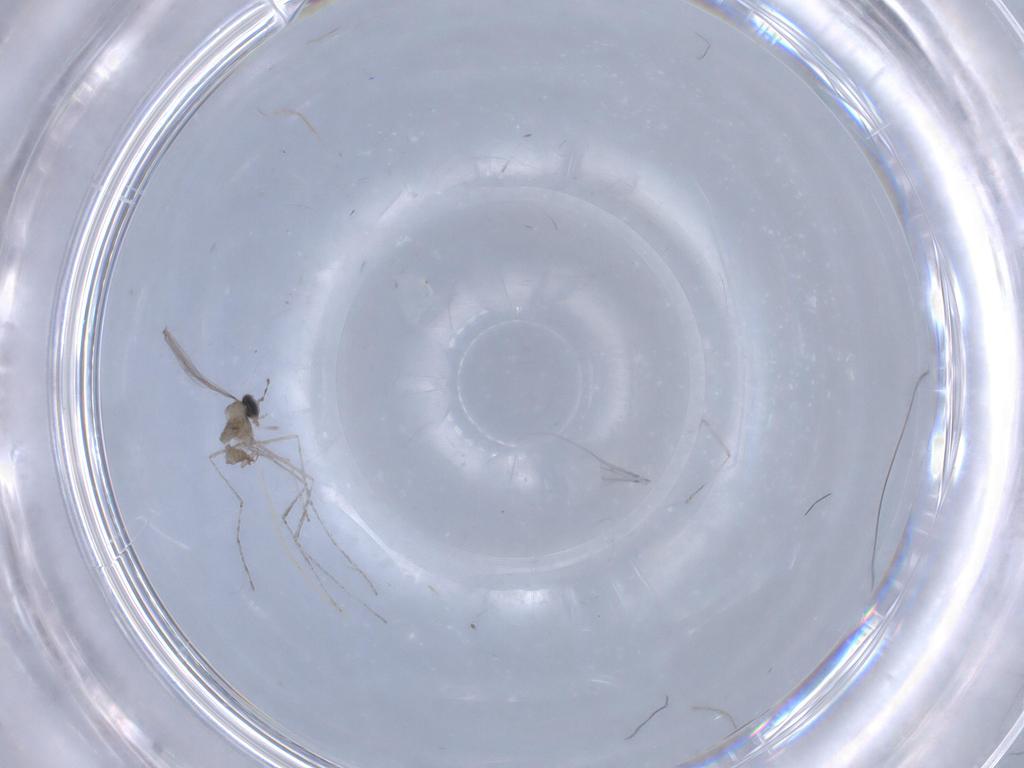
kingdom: Animalia
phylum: Arthropoda
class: Insecta
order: Diptera
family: Cecidomyiidae
